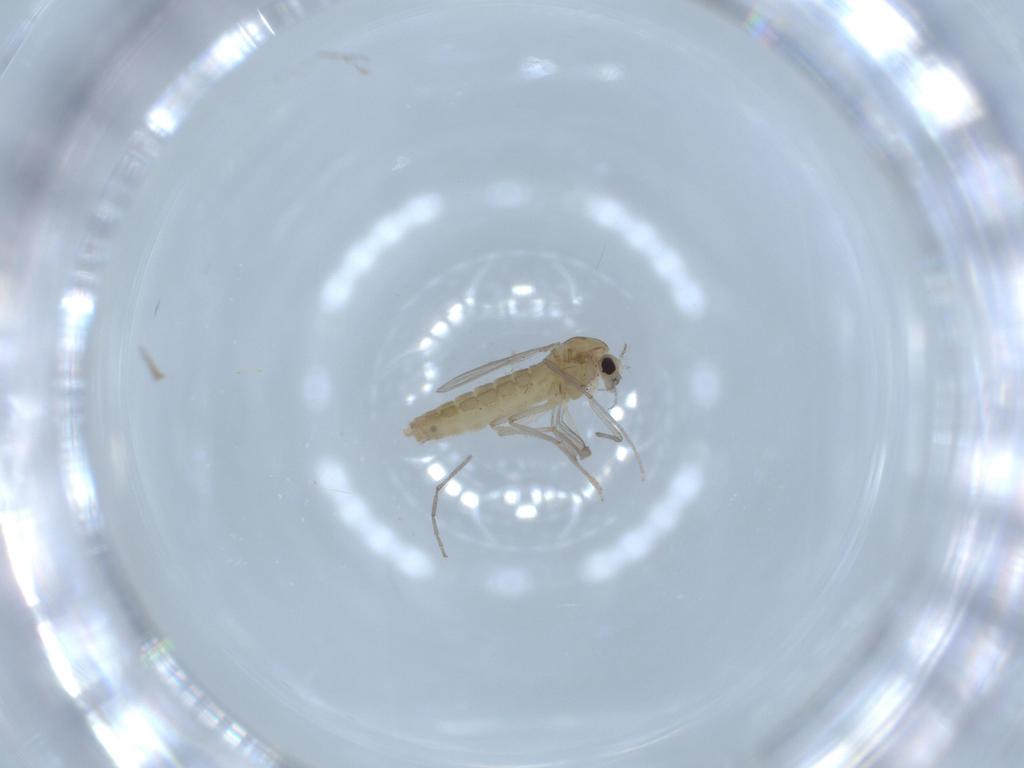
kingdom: Animalia
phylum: Arthropoda
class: Insecta
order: Diptera
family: Chironomidae
